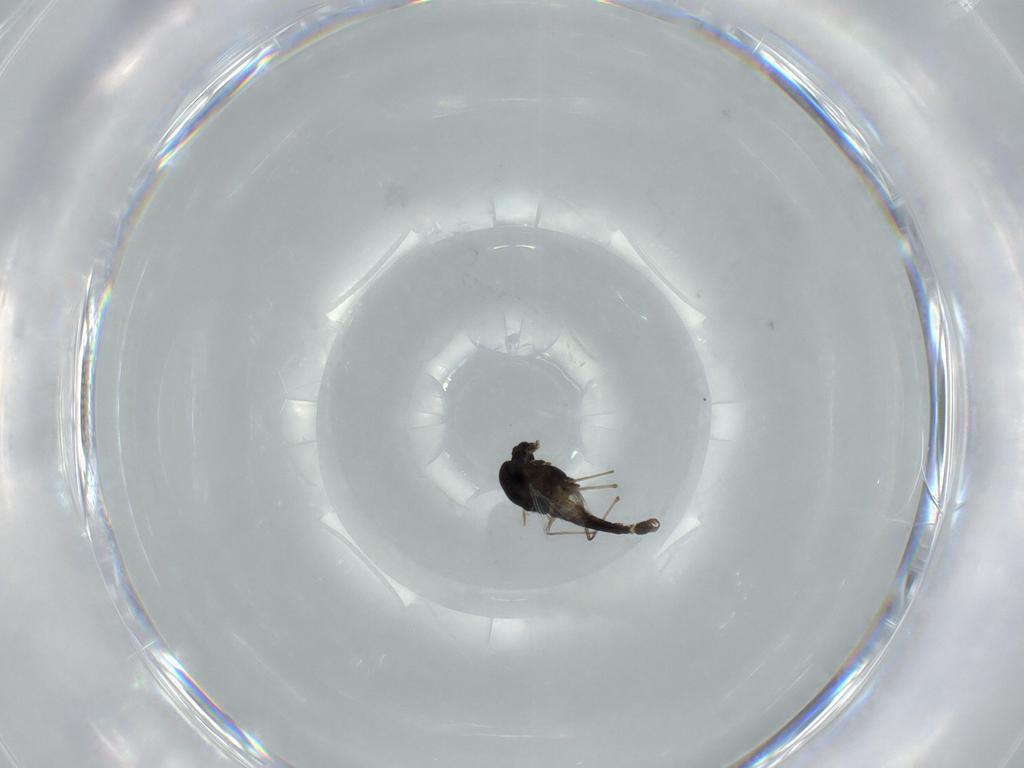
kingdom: Animalia
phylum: Arthropoda
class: Insecta
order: Diptera
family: Chironomidae
